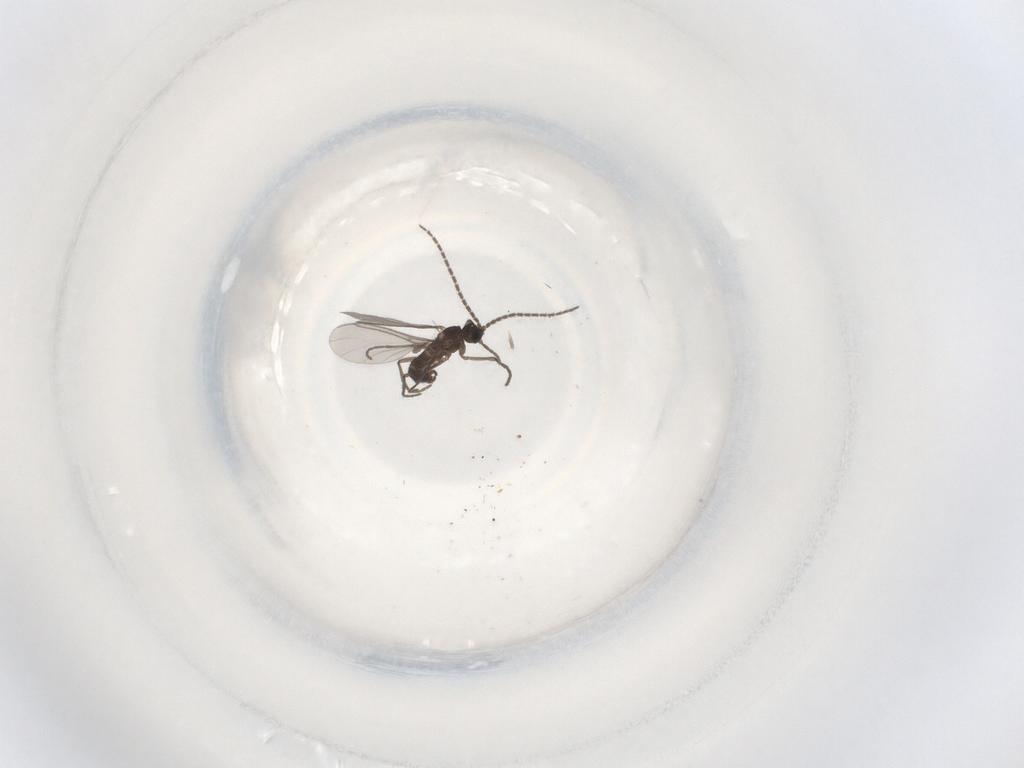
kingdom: Animalia
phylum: Arthropoda
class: Insecta
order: Diptera
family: Sciaridae
